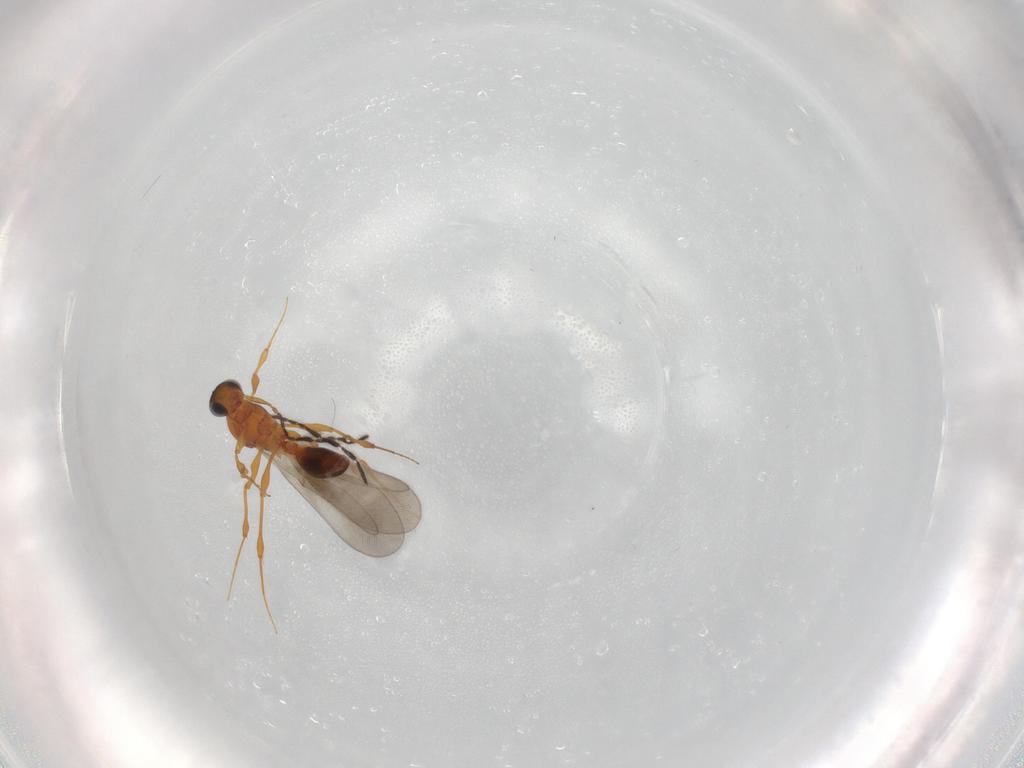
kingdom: Animalia
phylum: Arthropoda
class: Insecta
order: Hymenoptera
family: Platygastridae
